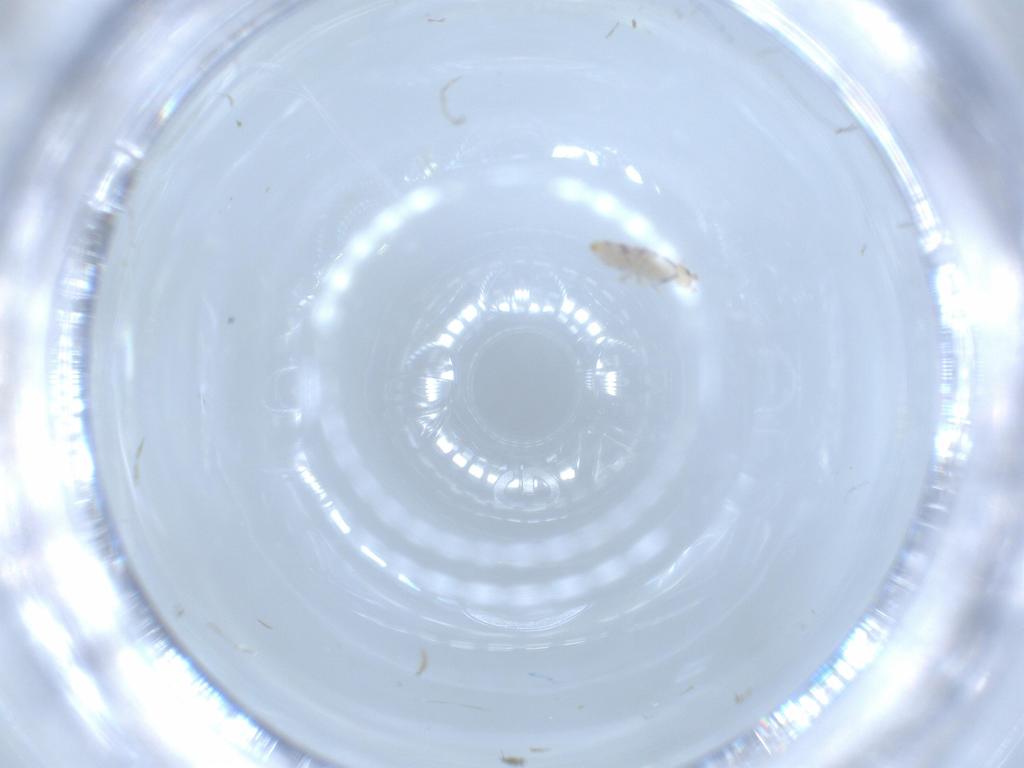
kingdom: Animalia
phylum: Arthropoda
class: Collembola
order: Entomobryomorpha
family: Entomobryidae
